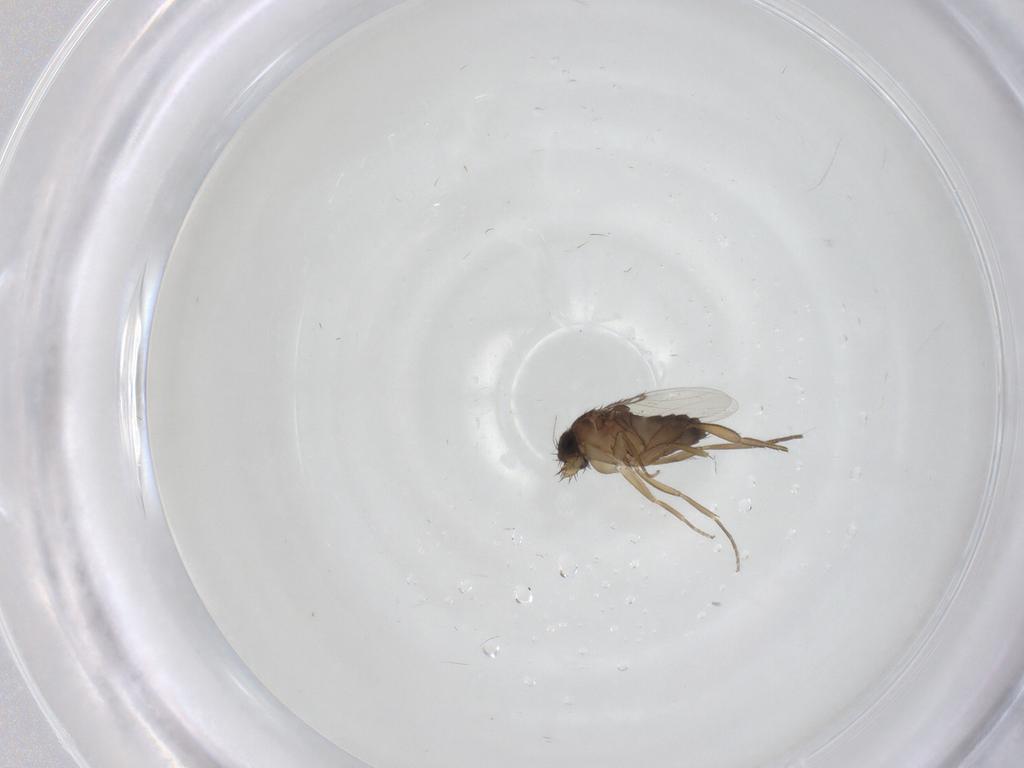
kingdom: Animalia
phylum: Arthropoda
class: Insecta
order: Diptera
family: Phoridae
